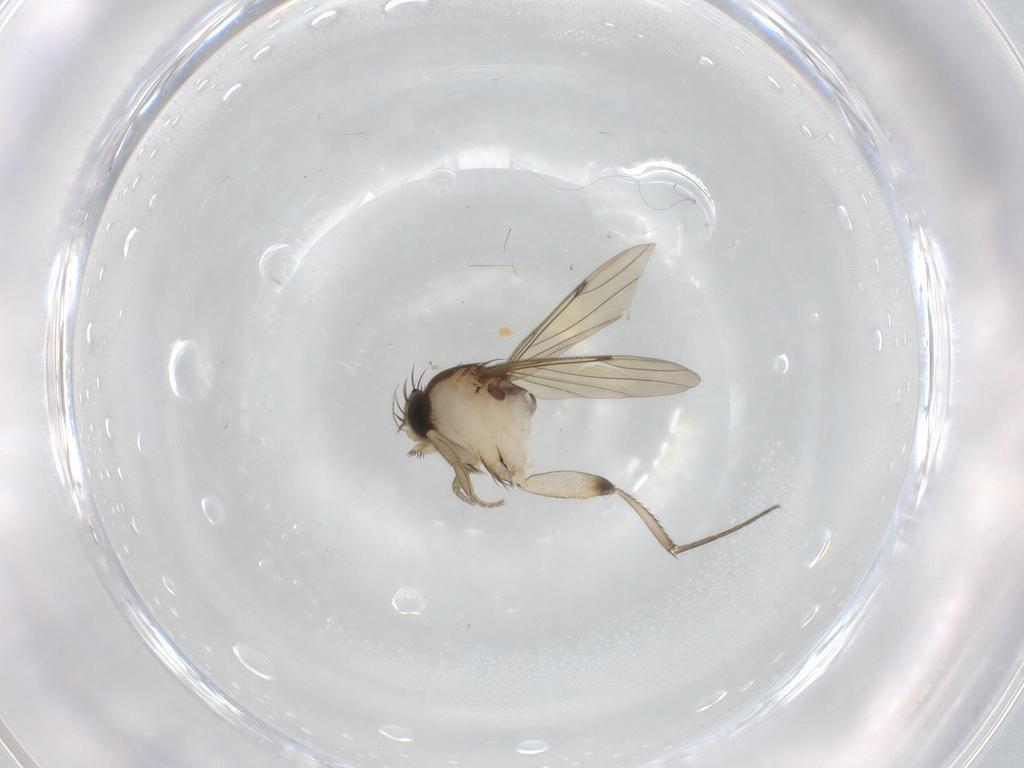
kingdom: Animalia
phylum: Arthropoda
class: Insecta
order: Diptera
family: Phoridae
